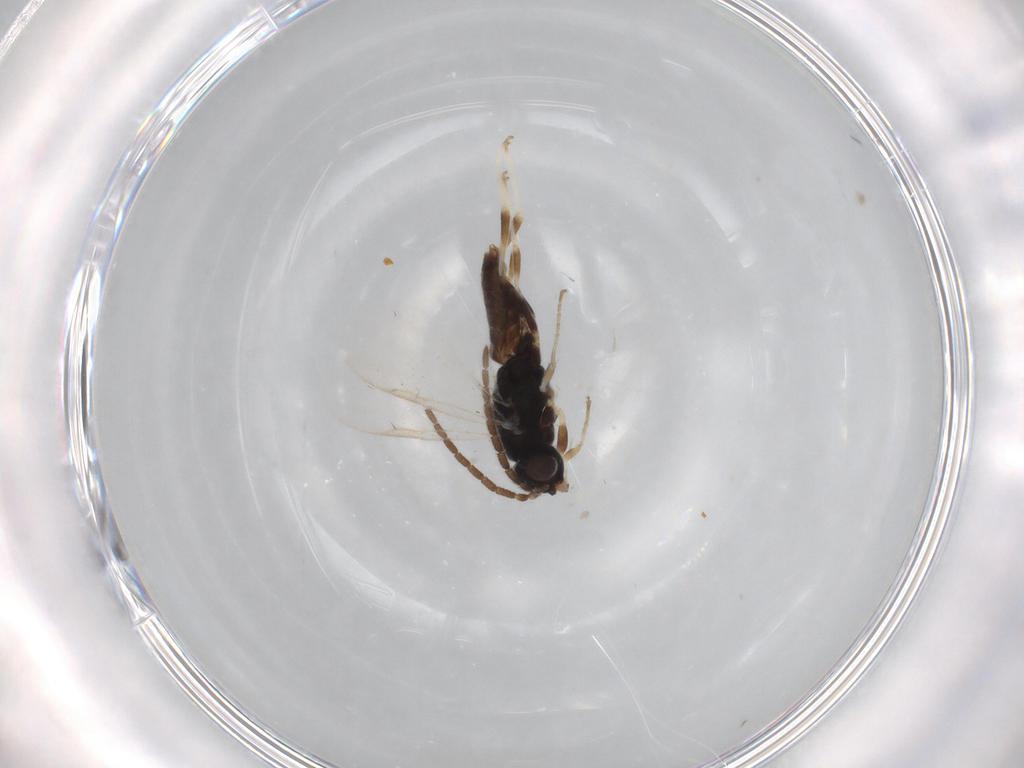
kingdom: Animalia
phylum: Arthropoda
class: Insecta
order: Hymenoptera
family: Dryinidae
